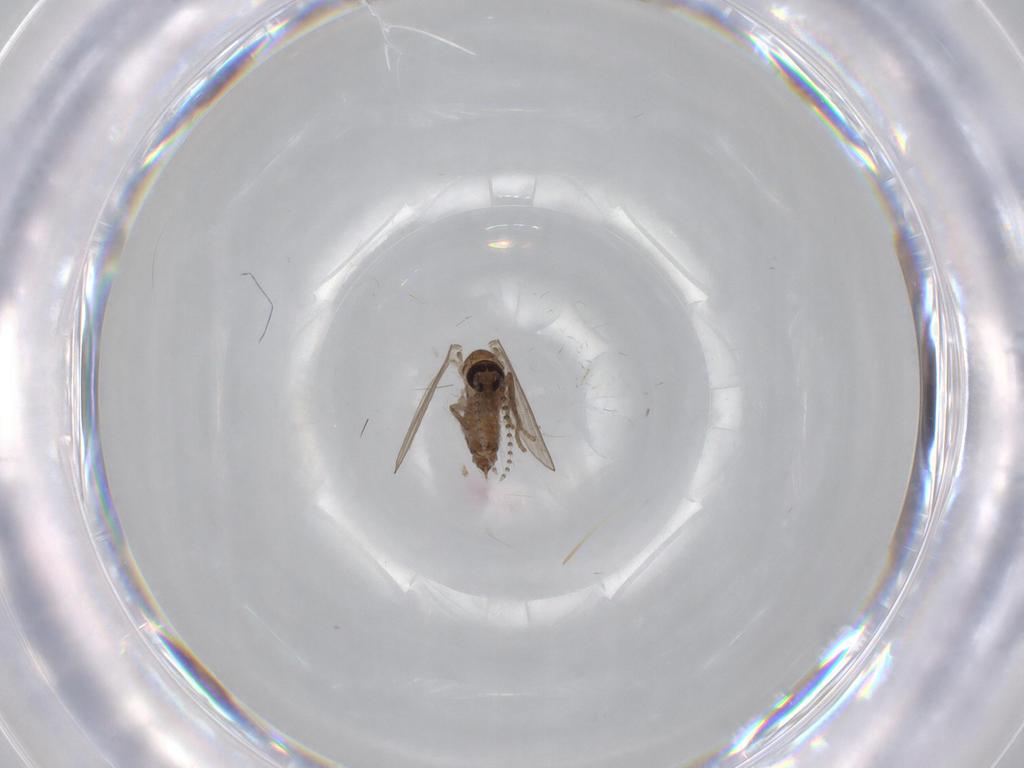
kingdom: Animalia
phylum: Arthropoda
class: Insecta
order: Diptera
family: Cecidomyiidae
